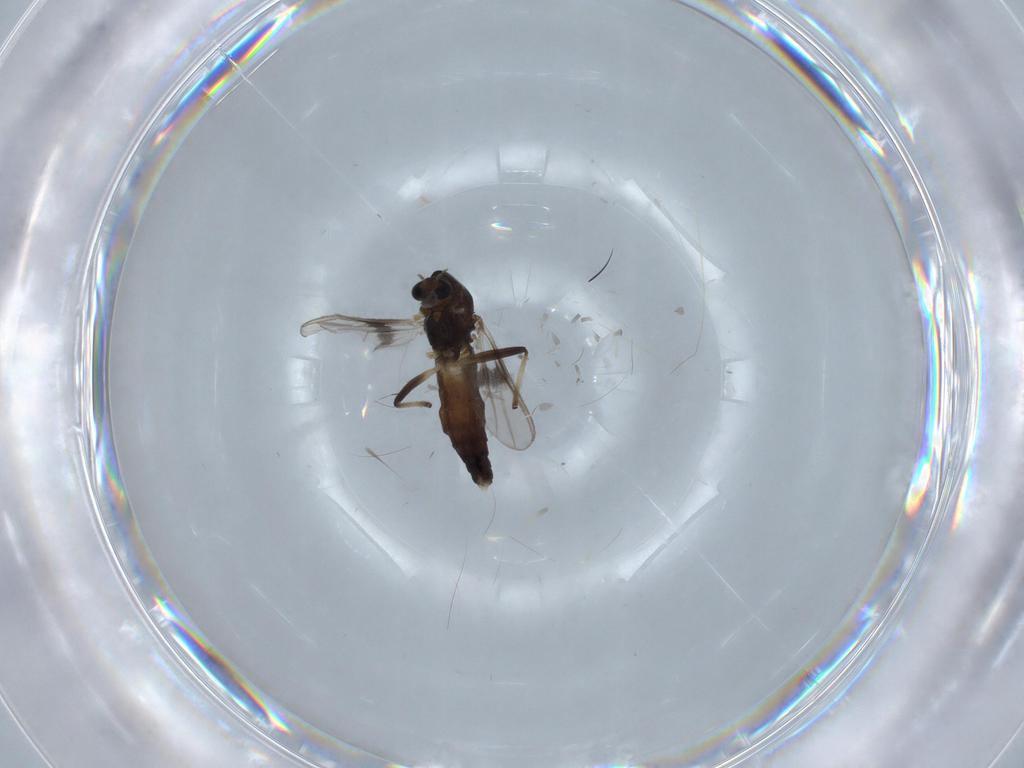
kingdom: Animalia
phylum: Arthropoda
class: Insecta
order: Diptera
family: Chironomidae
